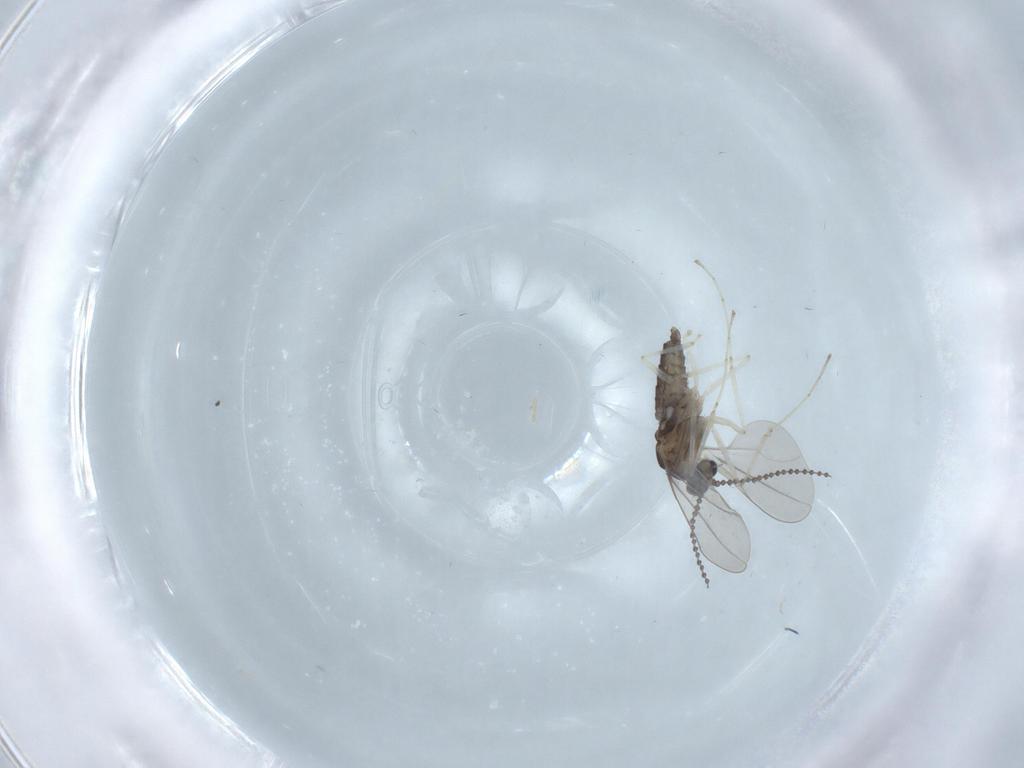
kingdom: Animalia
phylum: Arthropoda
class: Insecta
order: Diptera
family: Cecidomyiidae
